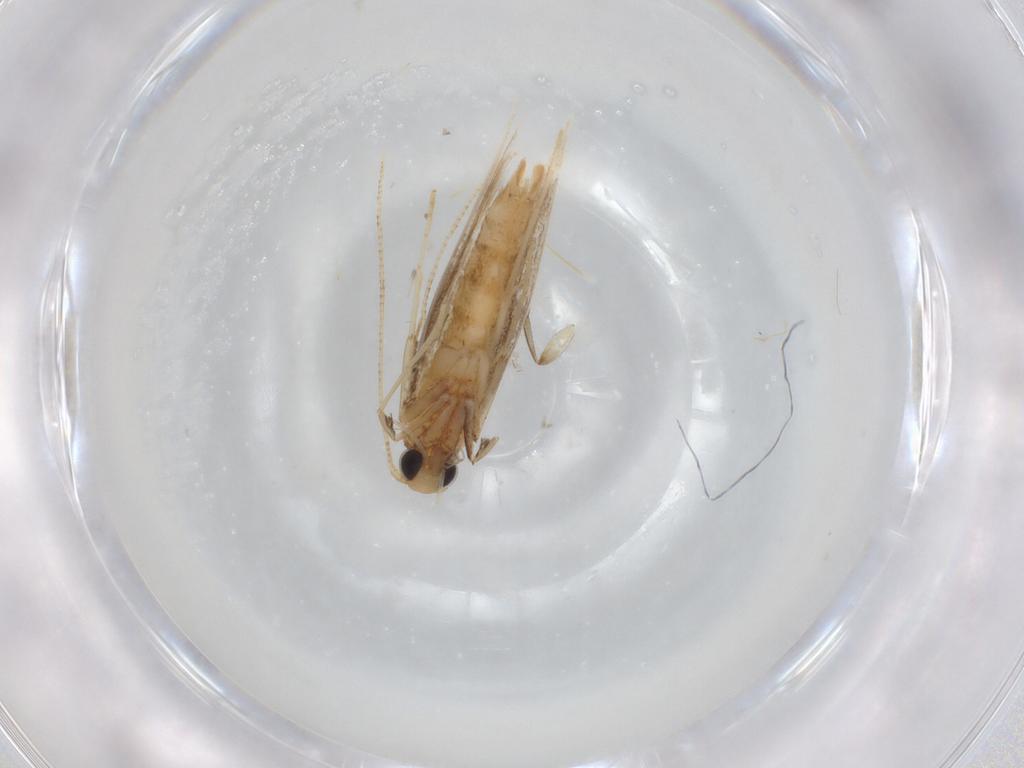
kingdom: Animalia
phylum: Arthropoda
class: Insecta
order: Lepidoptera
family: Gracillariidae
